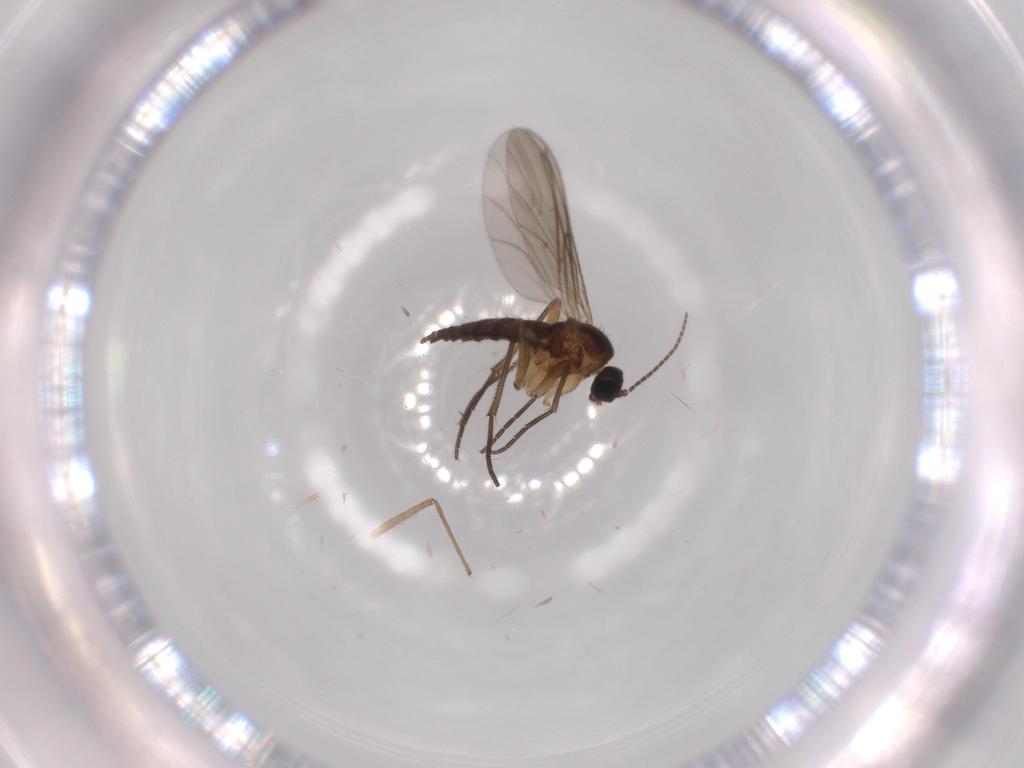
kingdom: Animalia
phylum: Arthropoda
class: Insecta
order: Diptera
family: Sciaridae
